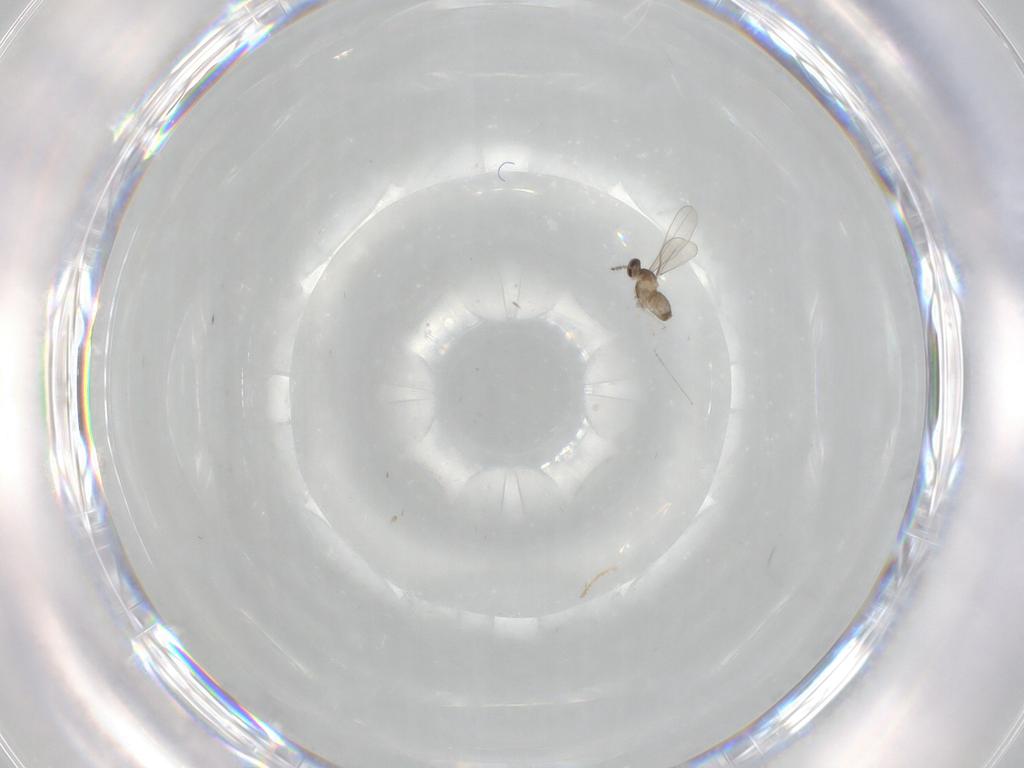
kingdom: Animalia
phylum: Arthropoda
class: Insecta
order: Diptera
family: Cecidomyiidae
